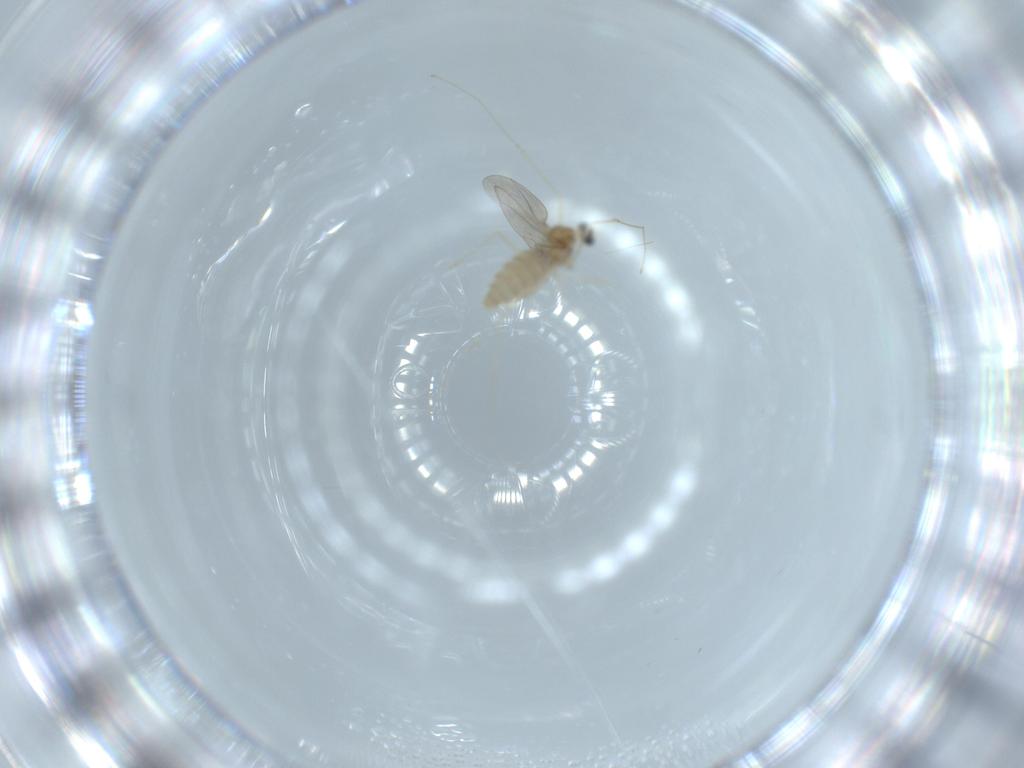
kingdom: Animalia
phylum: Arthropoda
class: Insecta
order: Diptera
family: Cecidomyiidae
